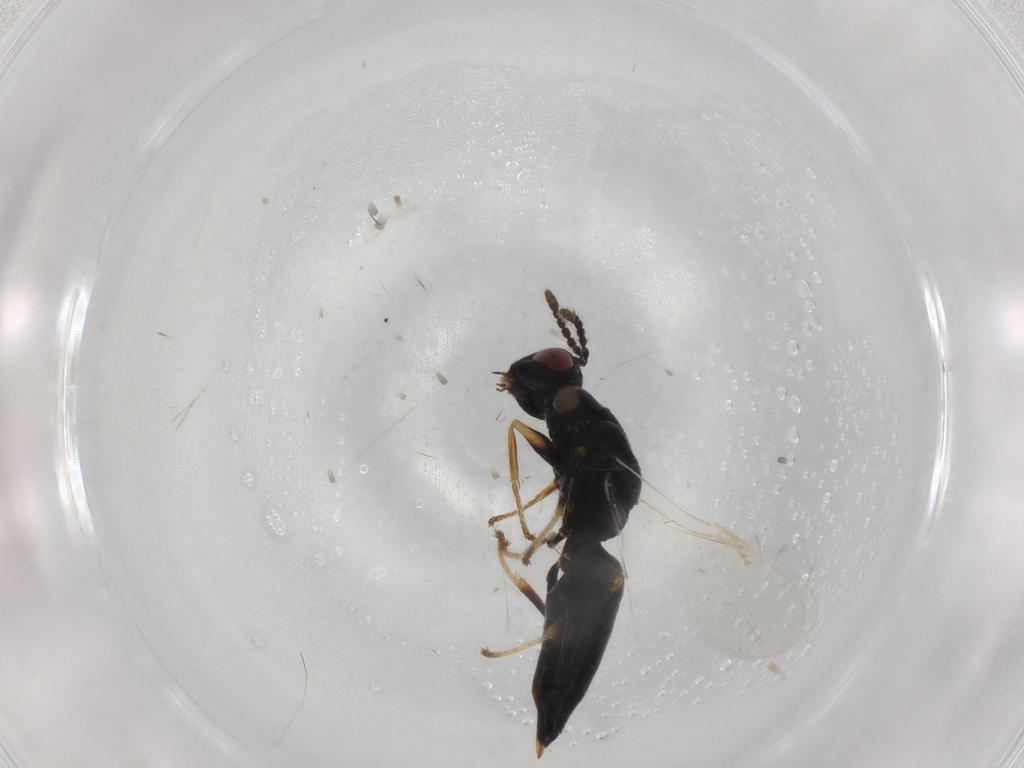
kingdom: Animalia
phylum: Arthropoda
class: Insecta
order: Hymenoptera
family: Eurytomidae
